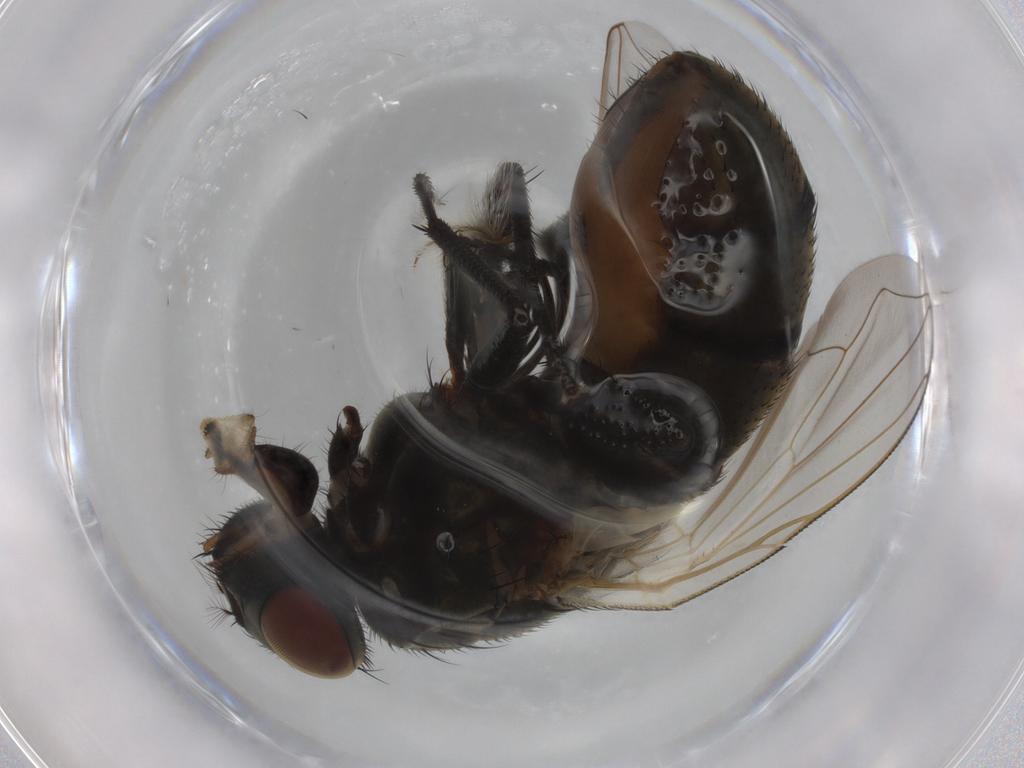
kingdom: Animalia
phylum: Arthropoda
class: Insecta
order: Diptera
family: Muscidae
